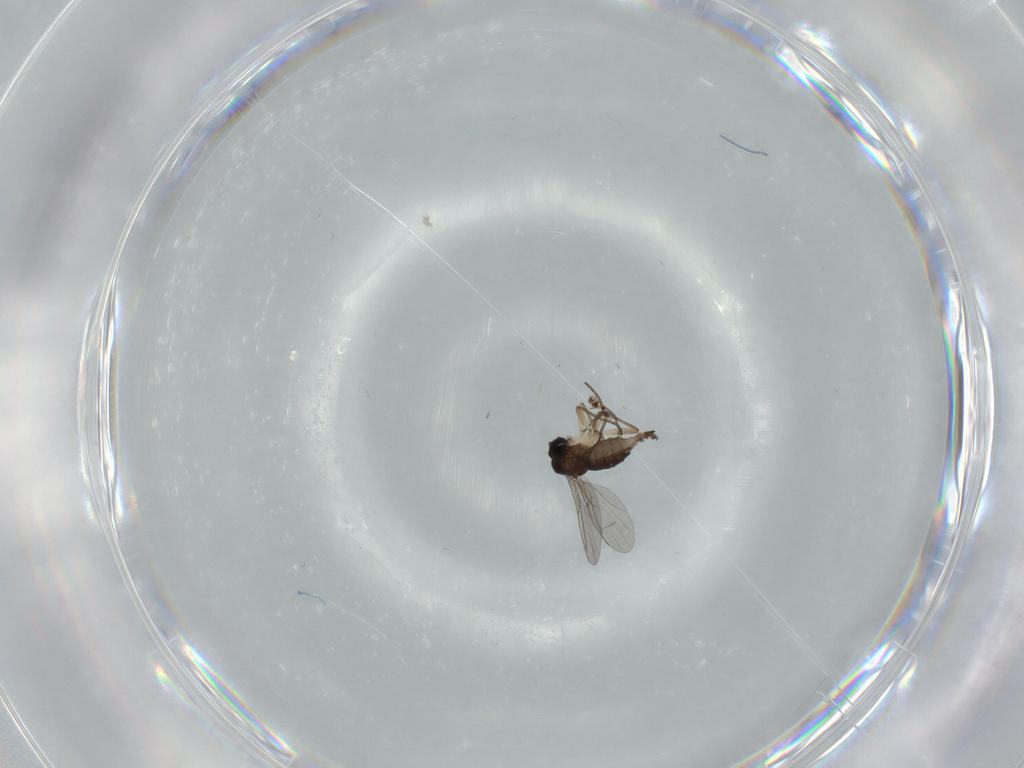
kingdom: Animalia
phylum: Arthropoda
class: Insecta
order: Diptera
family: Sciaridae
